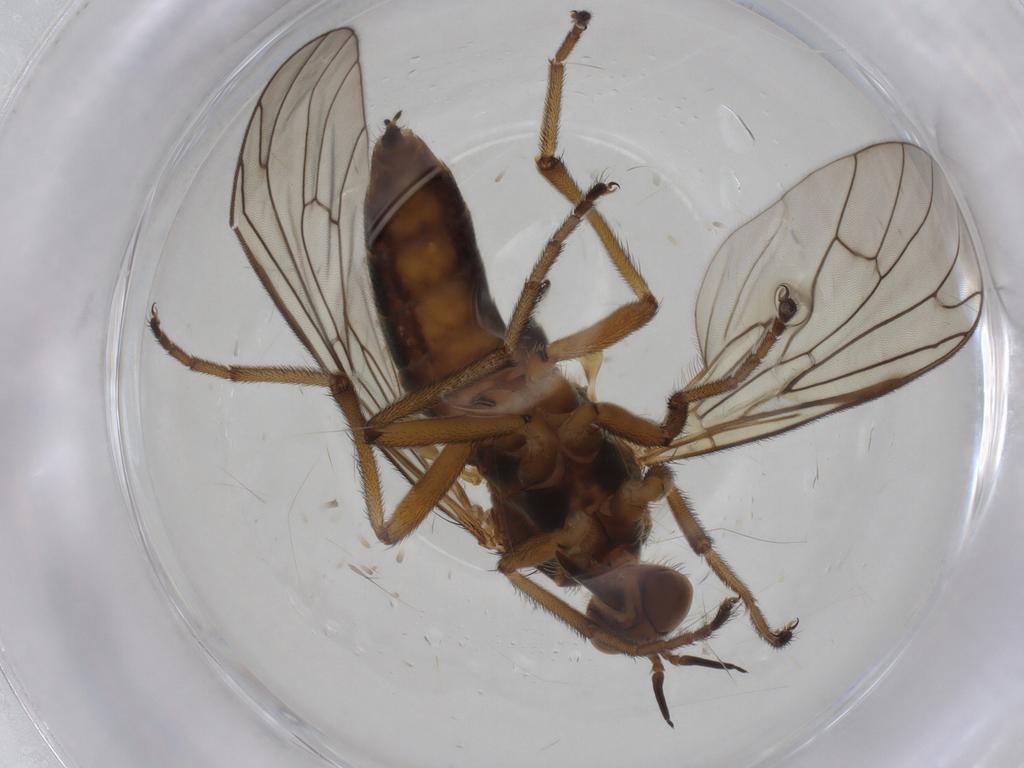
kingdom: Animalia
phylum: Arthropoda
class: Insecta
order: Diptera
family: Empididae
